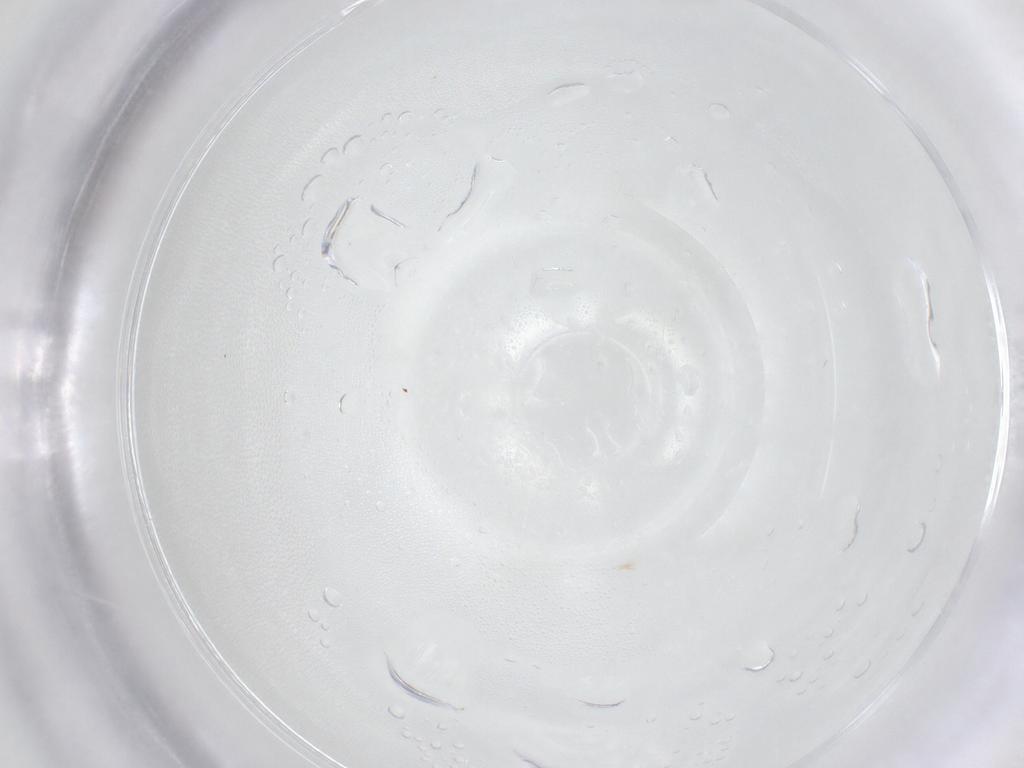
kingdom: Animalia
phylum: Arthropoda
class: Insecta
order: Diptera
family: Cecidomyiidae
